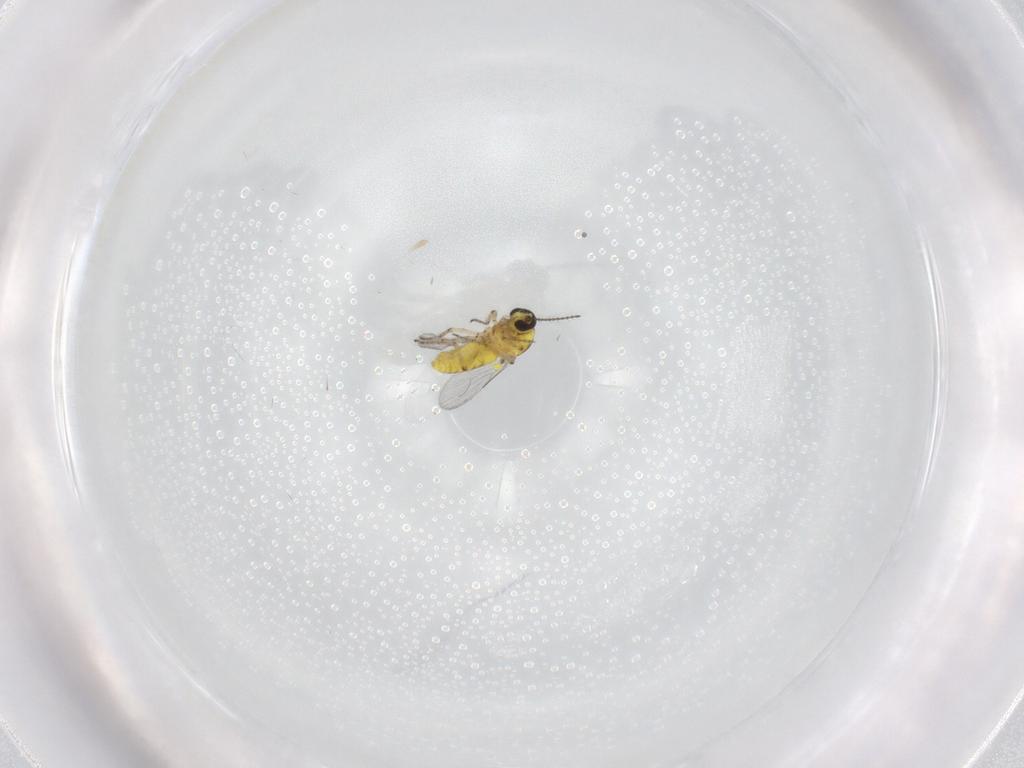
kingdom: Animalia
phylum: Arthropoda
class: Insecta
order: Diptera
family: Ceratopogonidae
